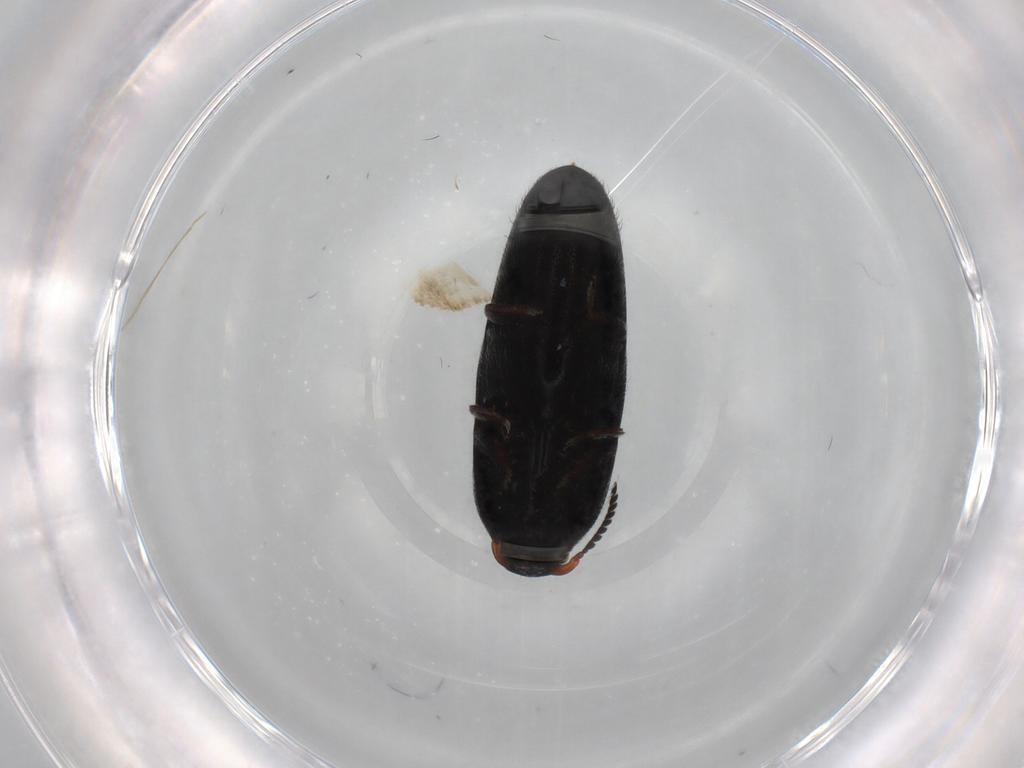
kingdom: Animalia
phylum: Arthropoda
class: Insecta
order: Coleoptera
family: Elateridae
